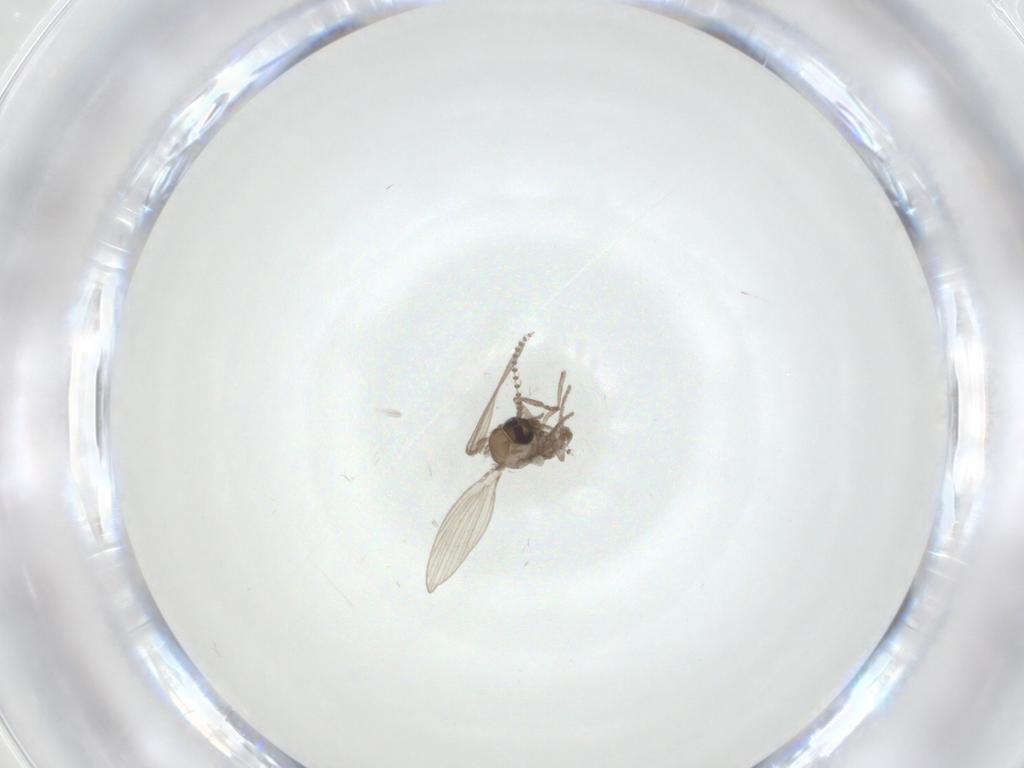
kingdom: Animalia
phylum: Arthropoda
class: Insecta
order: Diptera
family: Psychodidae
